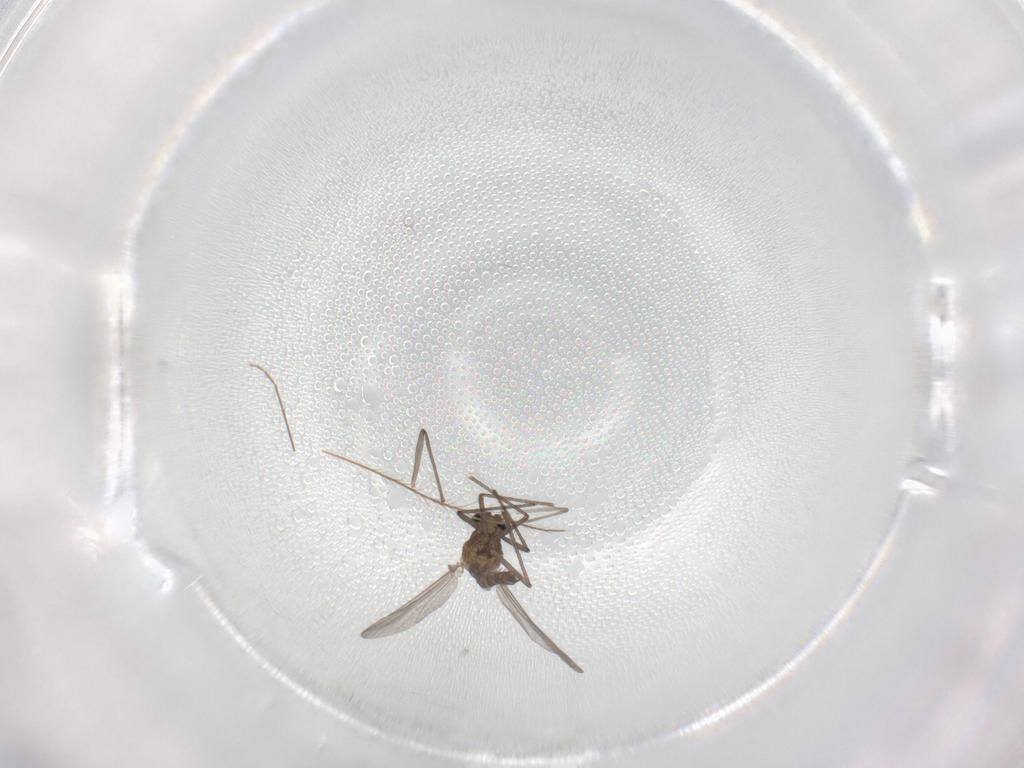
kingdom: Animalia
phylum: Arthropoda
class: Insecta
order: Diptera
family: Chironomidae
